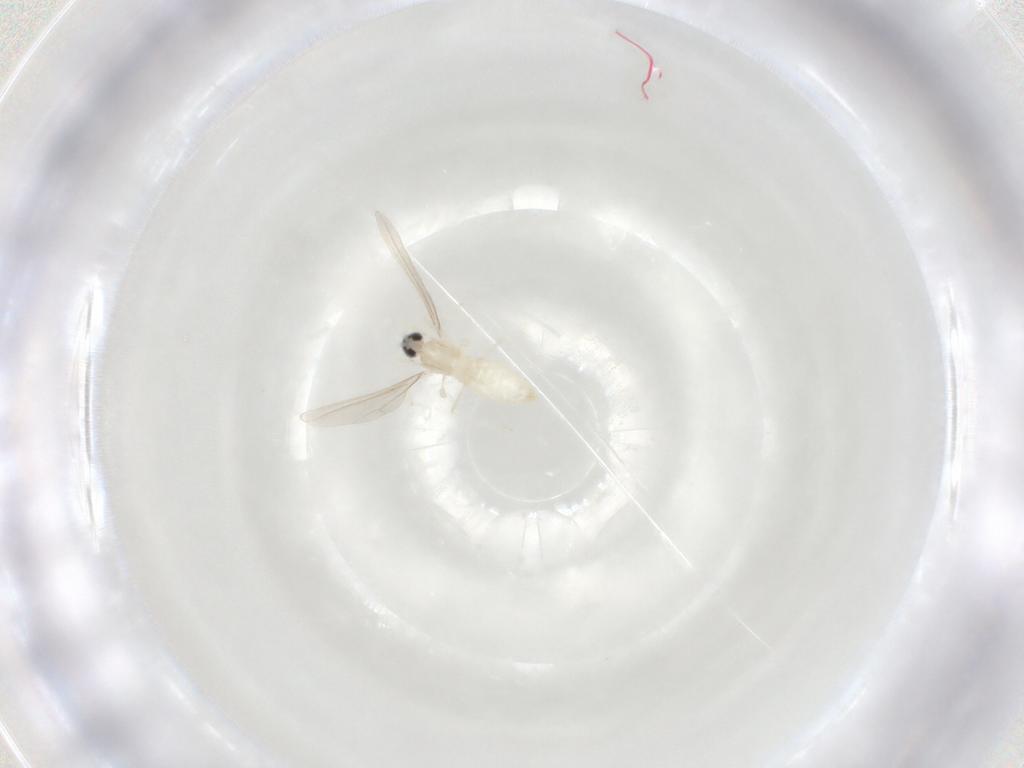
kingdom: Animalia
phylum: Arthropoda
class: Insecta
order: Diptera
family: Cecidomyiidae
